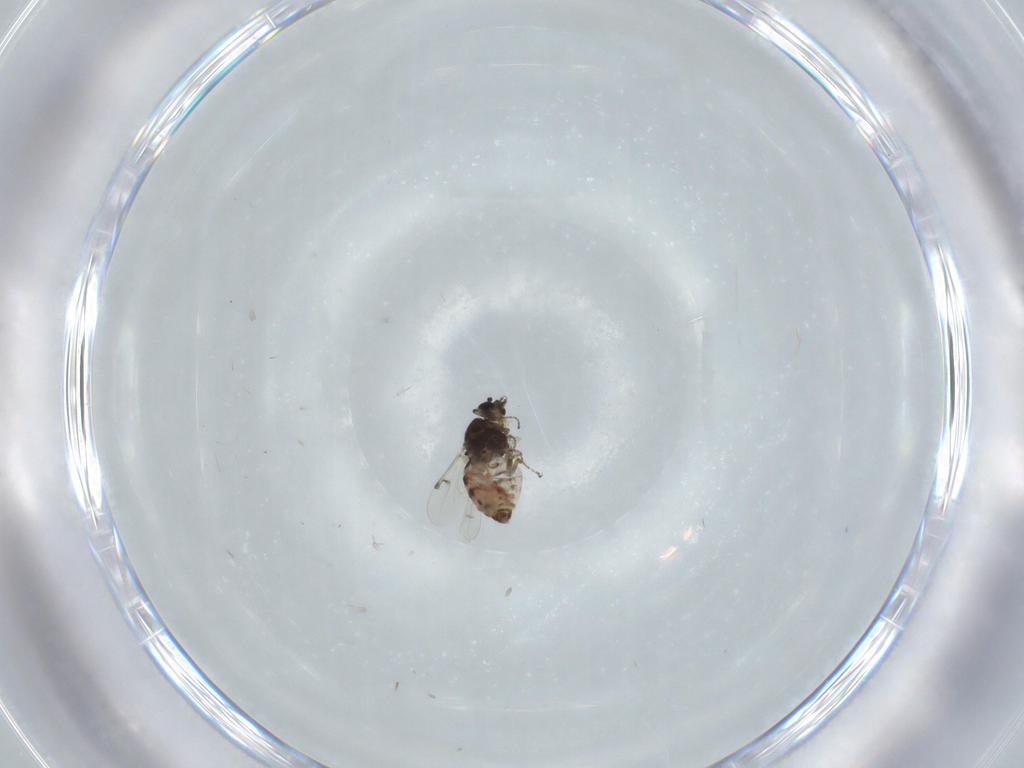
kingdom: Animalia
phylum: Arthropoda
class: Insecta
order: Diptera
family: Ceratopogonidae
